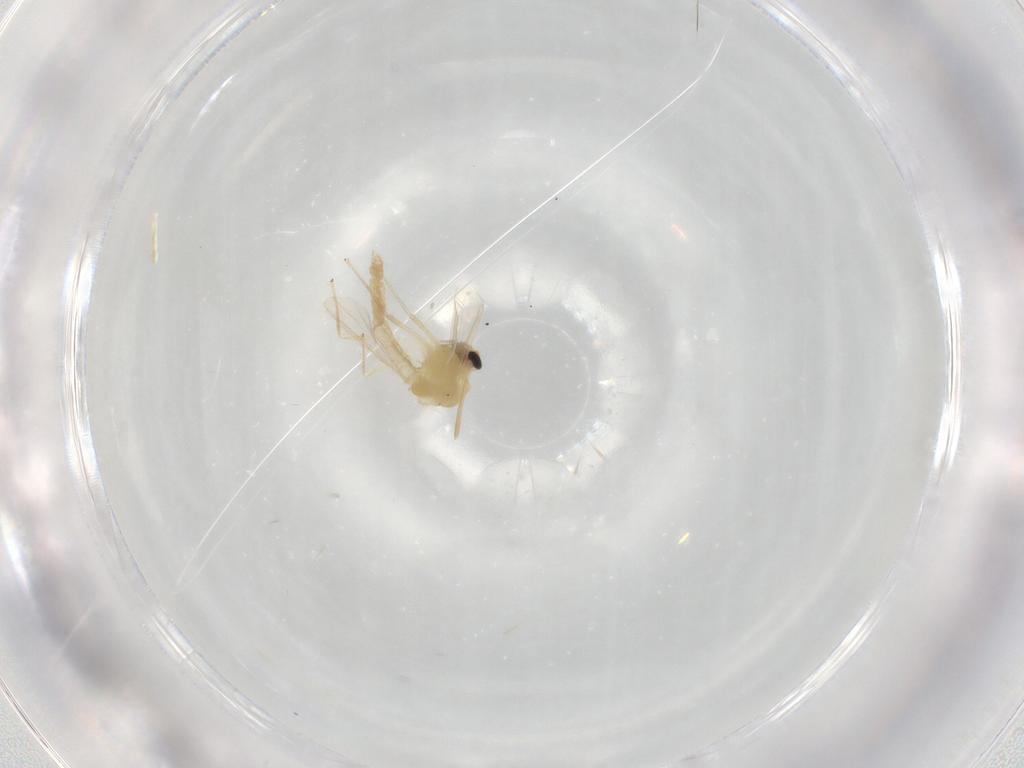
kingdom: Animalia
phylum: Arthropoda
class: Insecta
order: Diptera
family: Chironomidae
